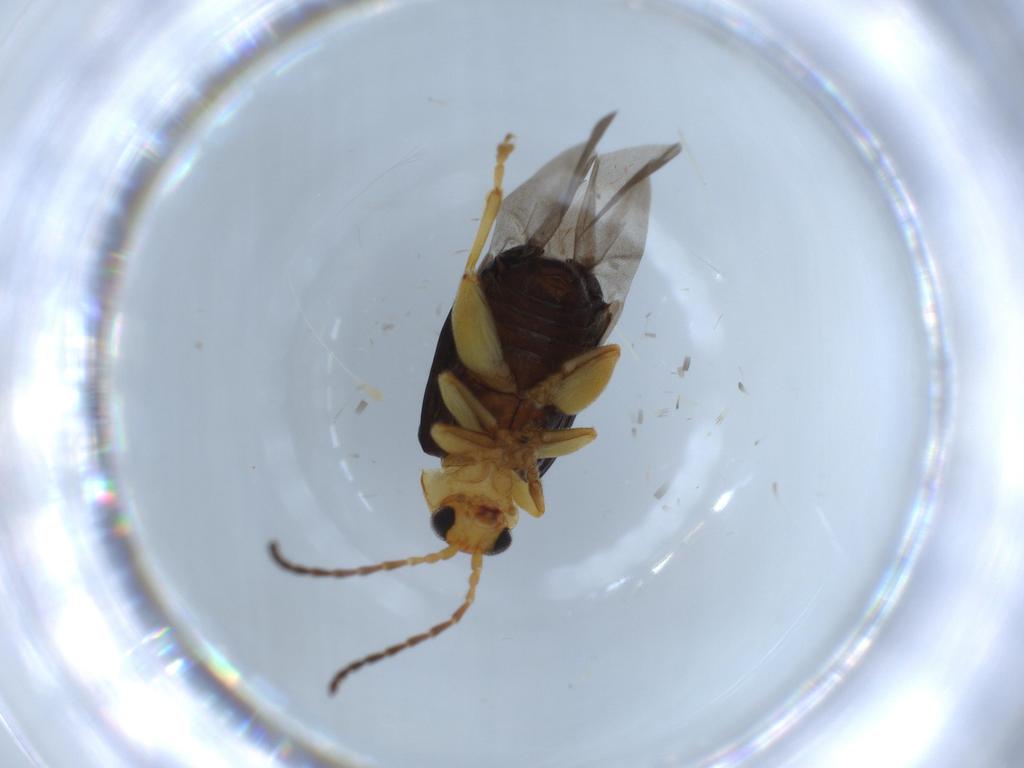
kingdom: Animalia
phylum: Arthropoda
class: Insecta
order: Coleoptera
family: Chrysomelidae
